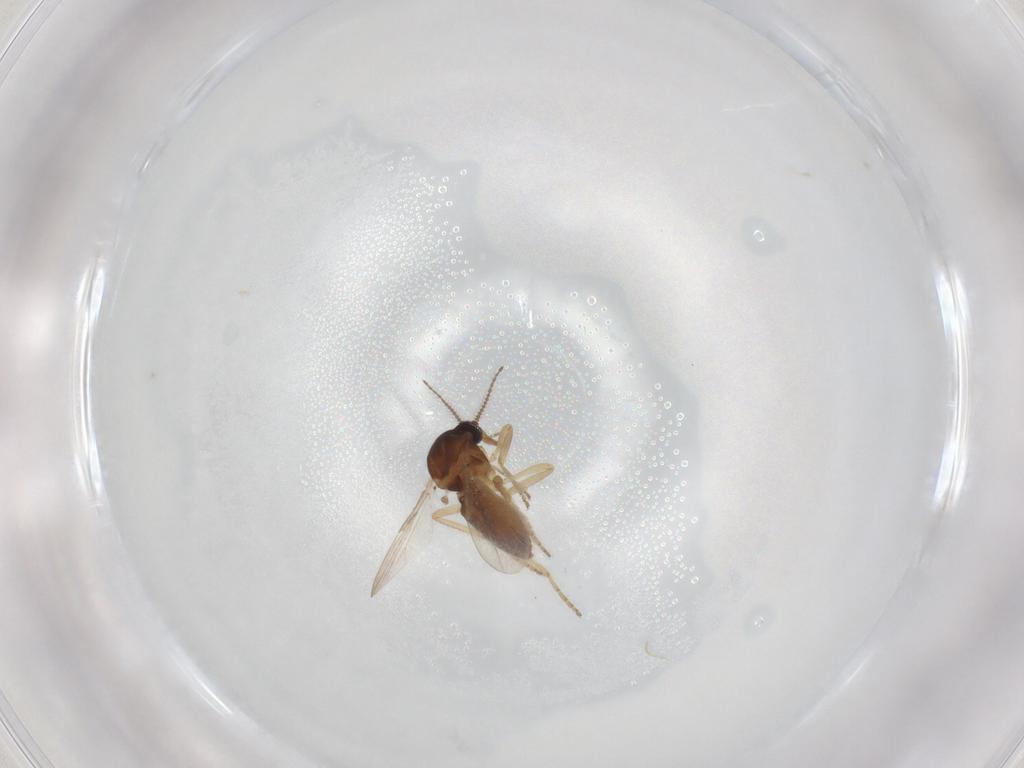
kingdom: Animalia
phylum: Arthropoda
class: Insecta
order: Diptera
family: Ceratopogonidae
